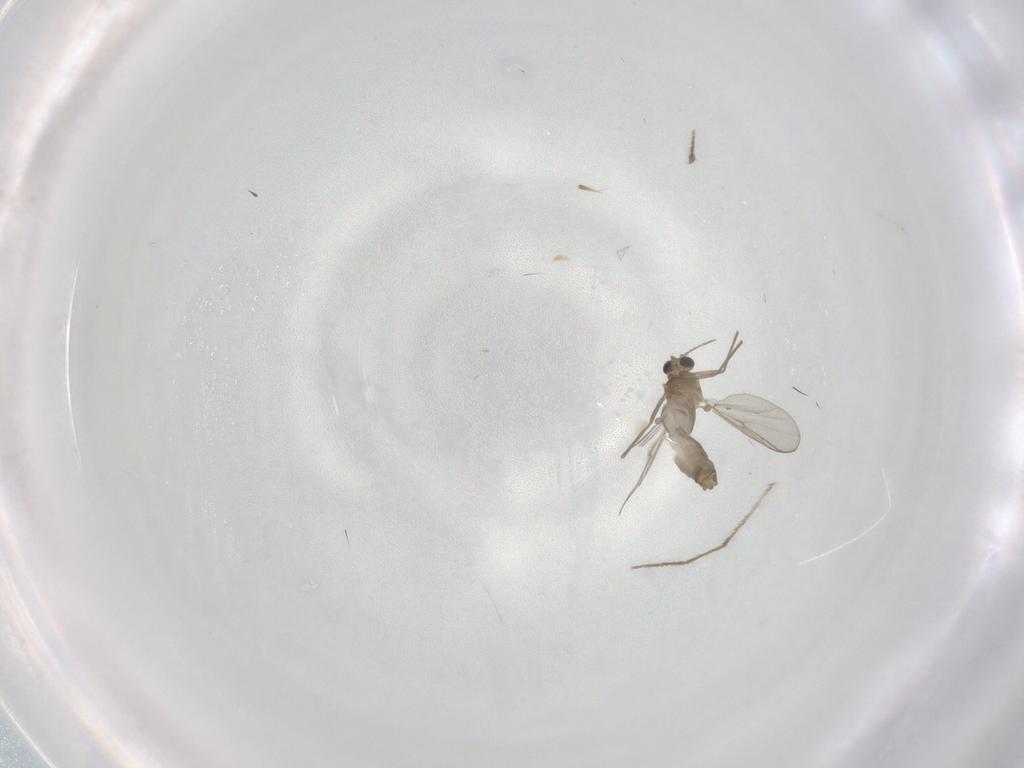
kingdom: Animalia
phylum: Arthropoda
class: Insecta
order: Diptera
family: Chironomidae
